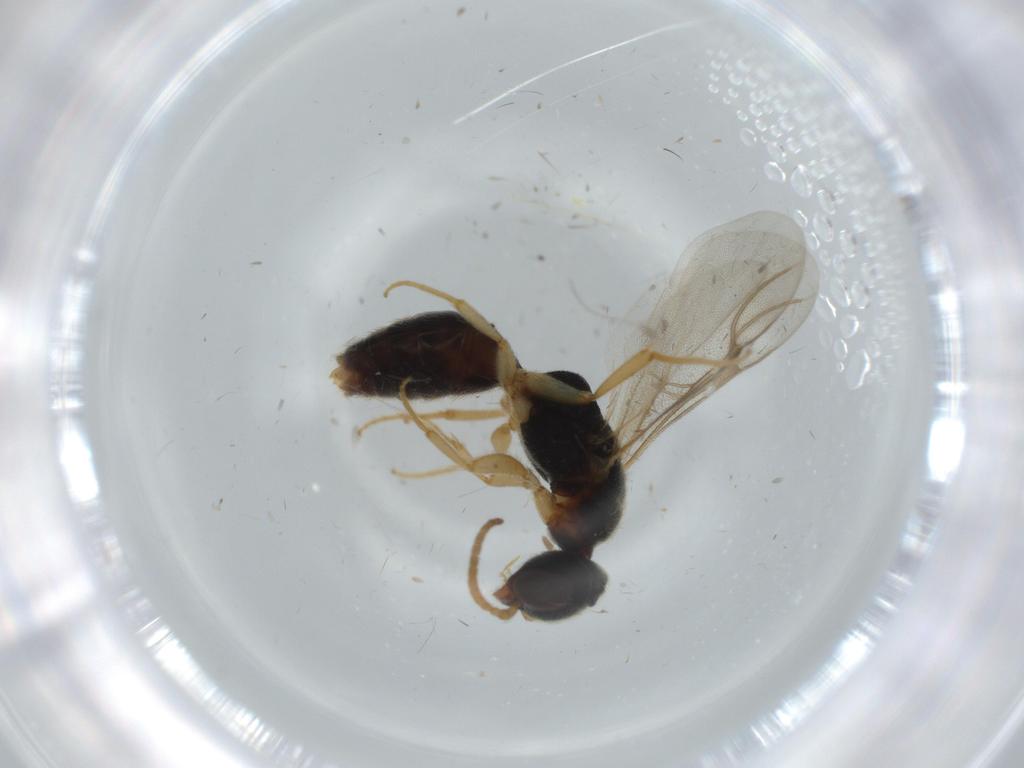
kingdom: Animalia
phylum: Arthropoda
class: Insecta
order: Hymenoptera
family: Bethylidae
